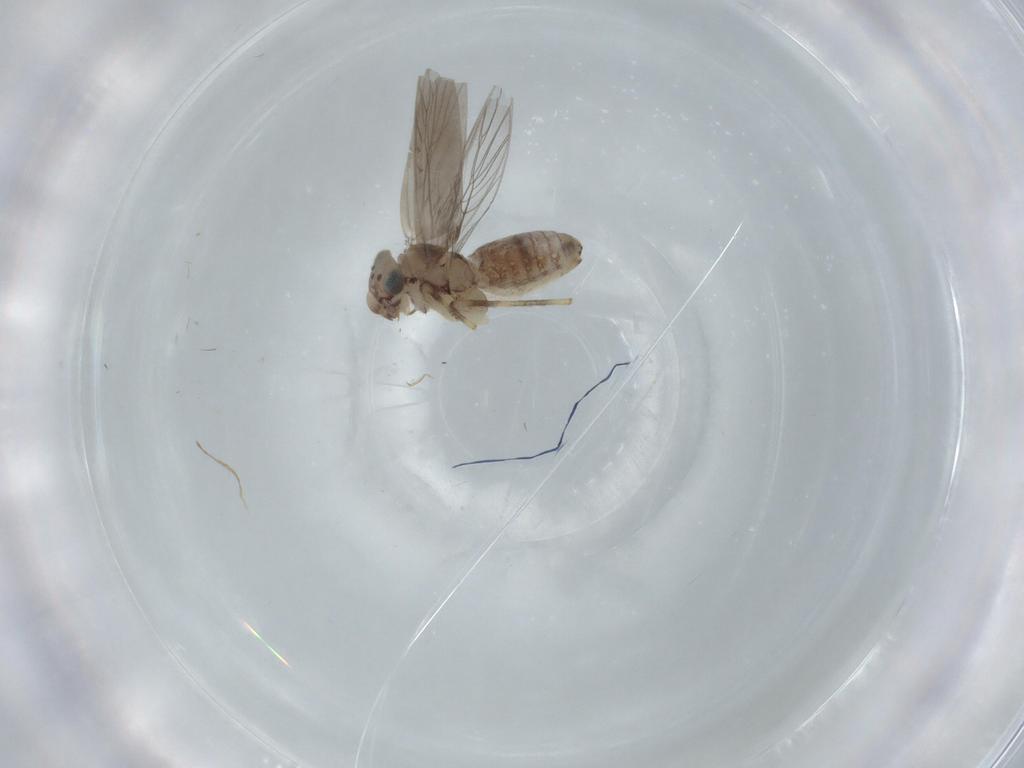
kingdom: Animalia
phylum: Arthropoda
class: Insecta
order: Psocodea
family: Lepidopsocidae
